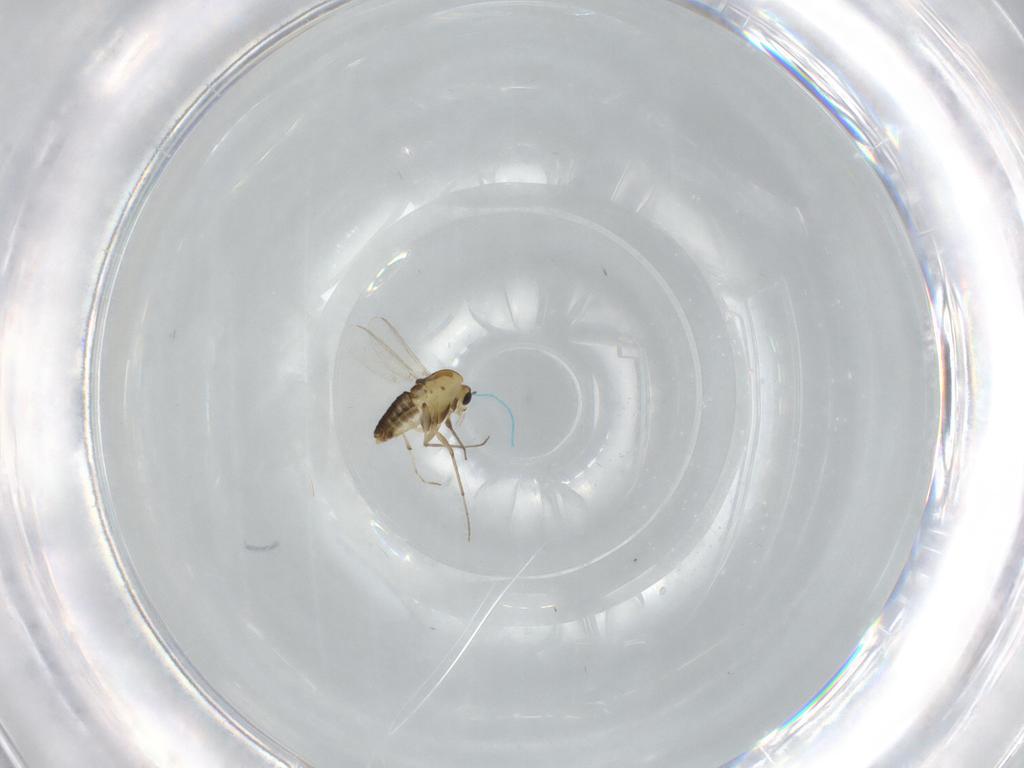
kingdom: Animalia
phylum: Arthropoda
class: Insecta
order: Diptera
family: Chironomidae
